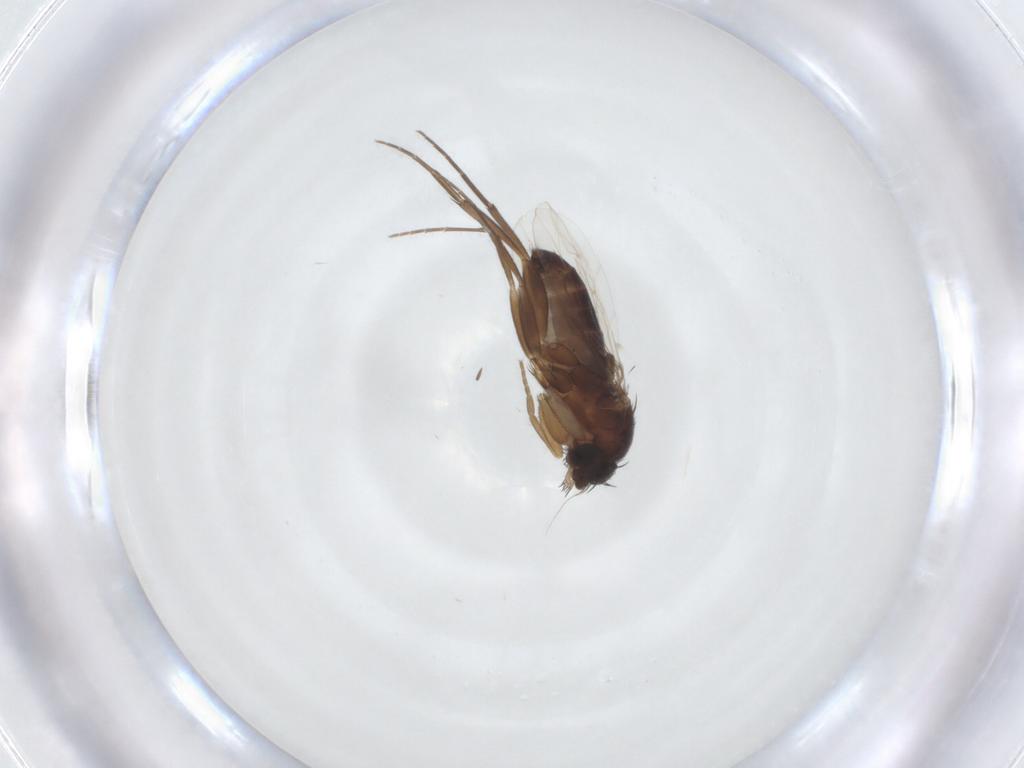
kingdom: Animalia
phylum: Arthropoda
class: Insecta
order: Diptera
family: Phoridae
